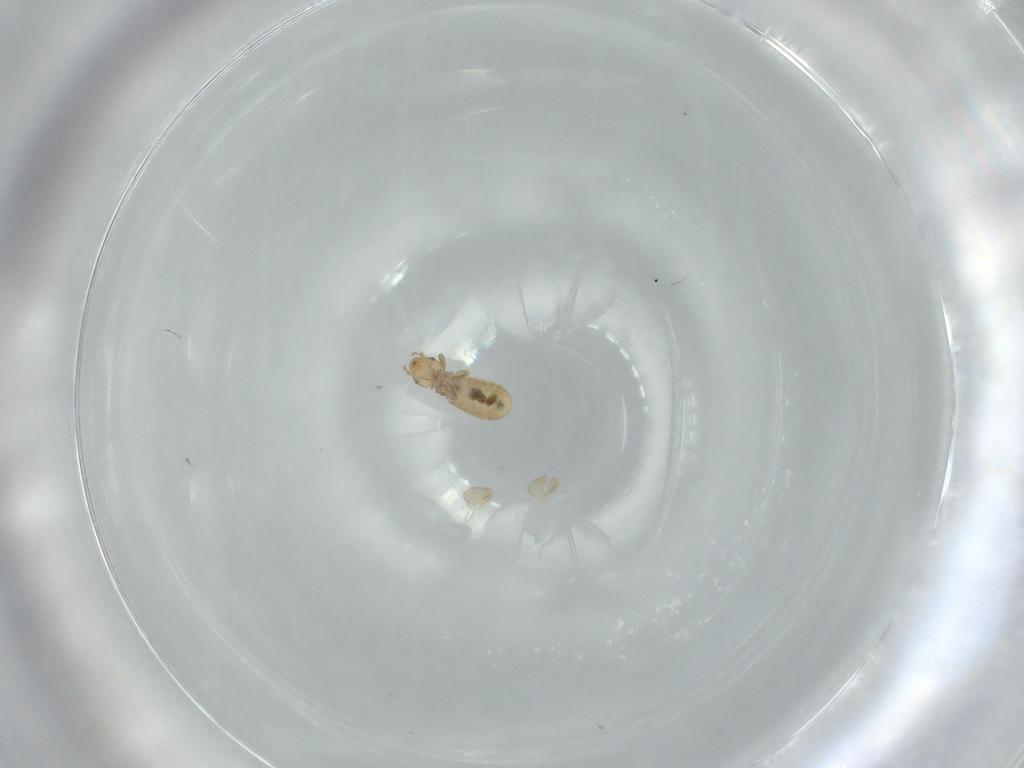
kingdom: Animalia
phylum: Arthropoda
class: Insecta
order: Psocodea
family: Liposcelididae
